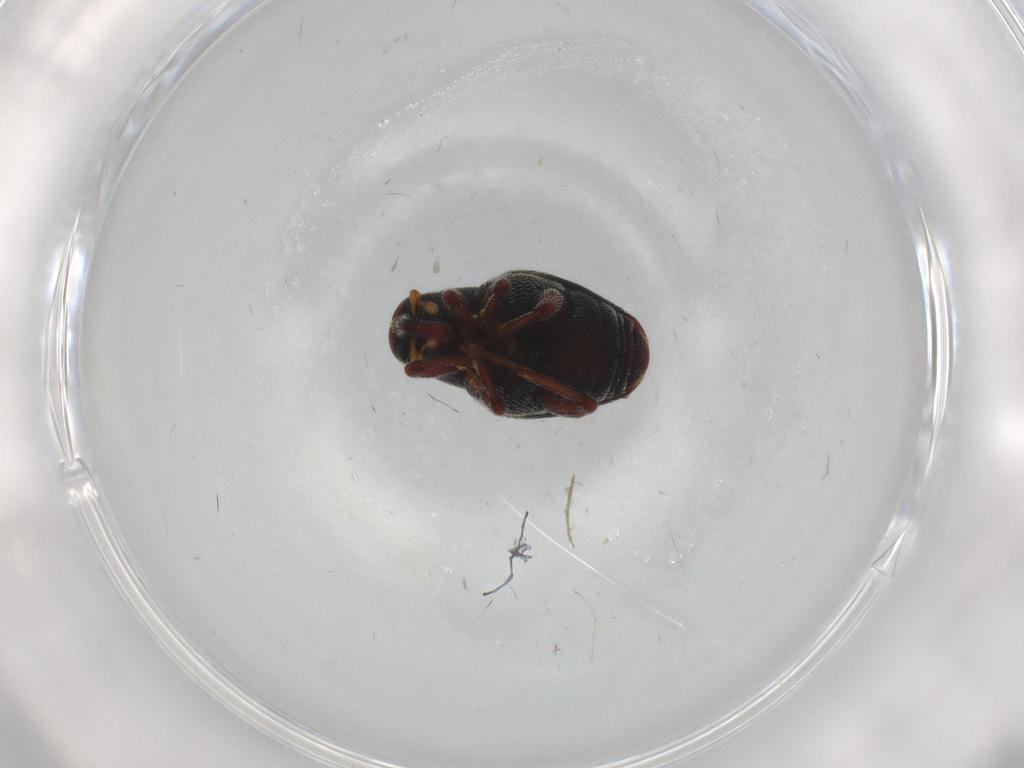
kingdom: Animalia
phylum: Arthropoda
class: Insecta
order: Coleoptera
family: Curculionidae
